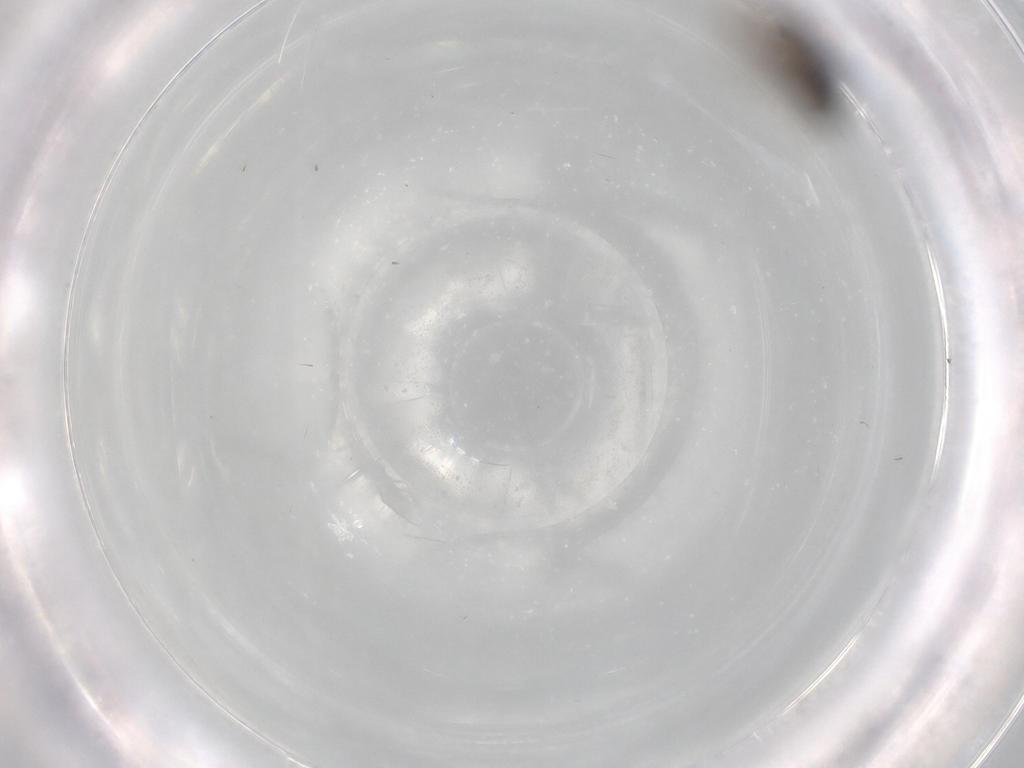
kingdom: Animalia
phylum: Arthropoda
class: Insecta
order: Diptera
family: Sphaeroceridae
